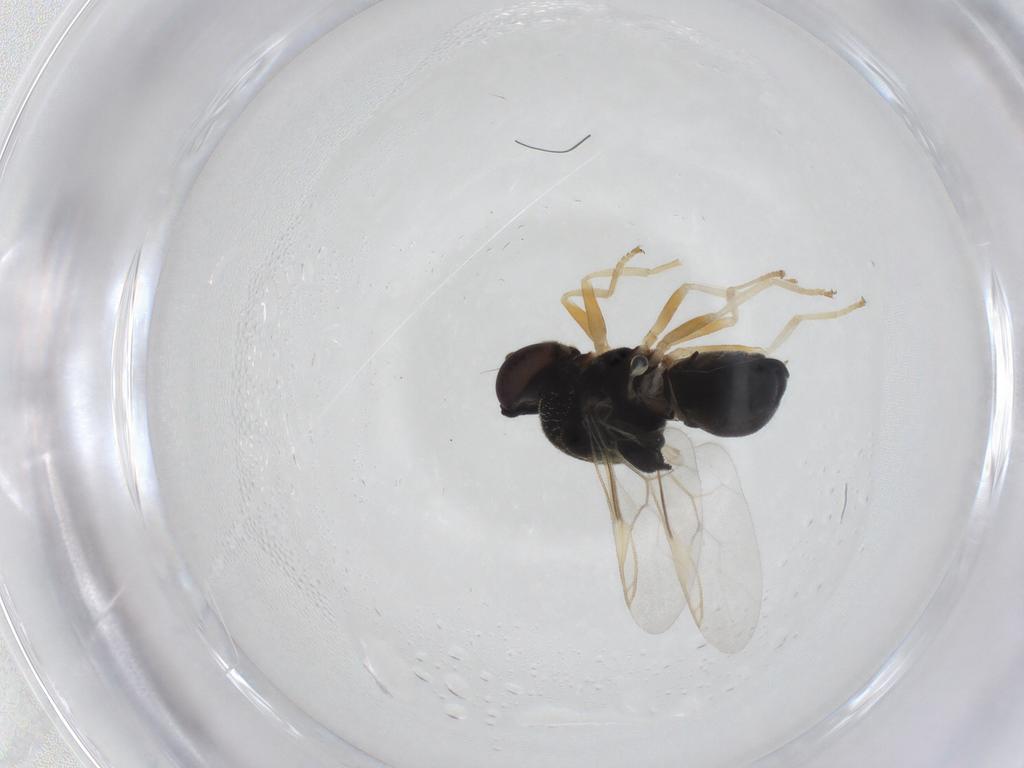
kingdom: Animalia
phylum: Arthropoda
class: Insecta
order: Diptera
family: Stratiomyidae
